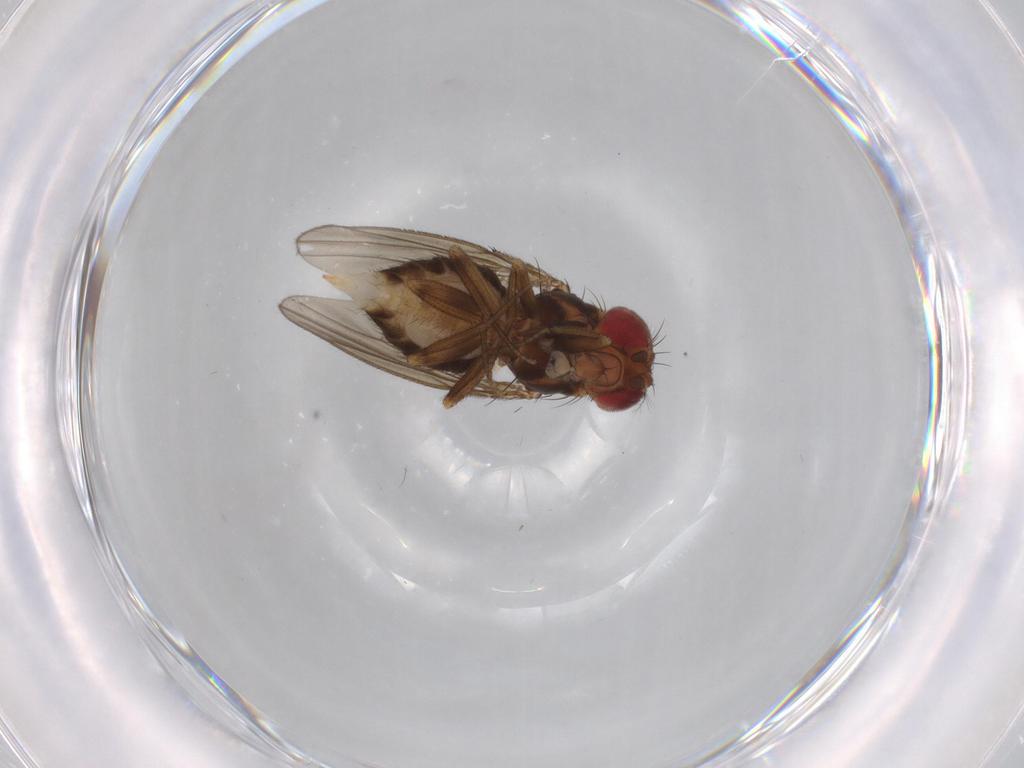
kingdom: Animalia
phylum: Arthropoda
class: Insecta
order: Diptera
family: Drosophilidae
